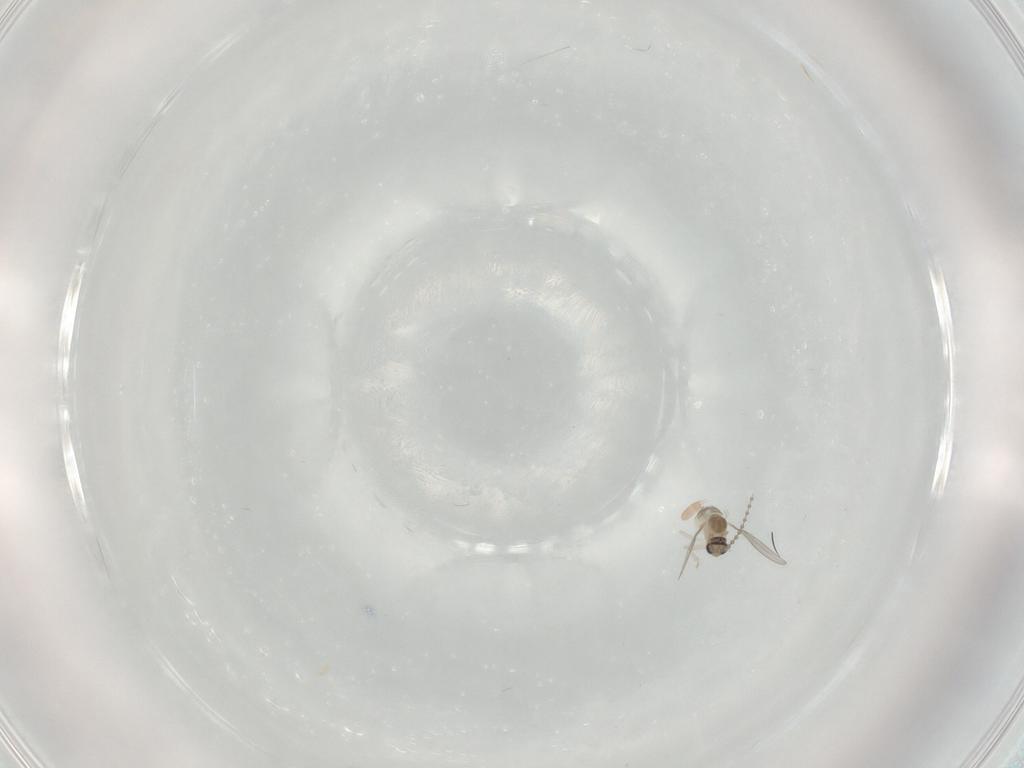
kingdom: Animalia
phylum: Arthropoda
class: Insecta
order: Diptera
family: Cecidomyiidae
